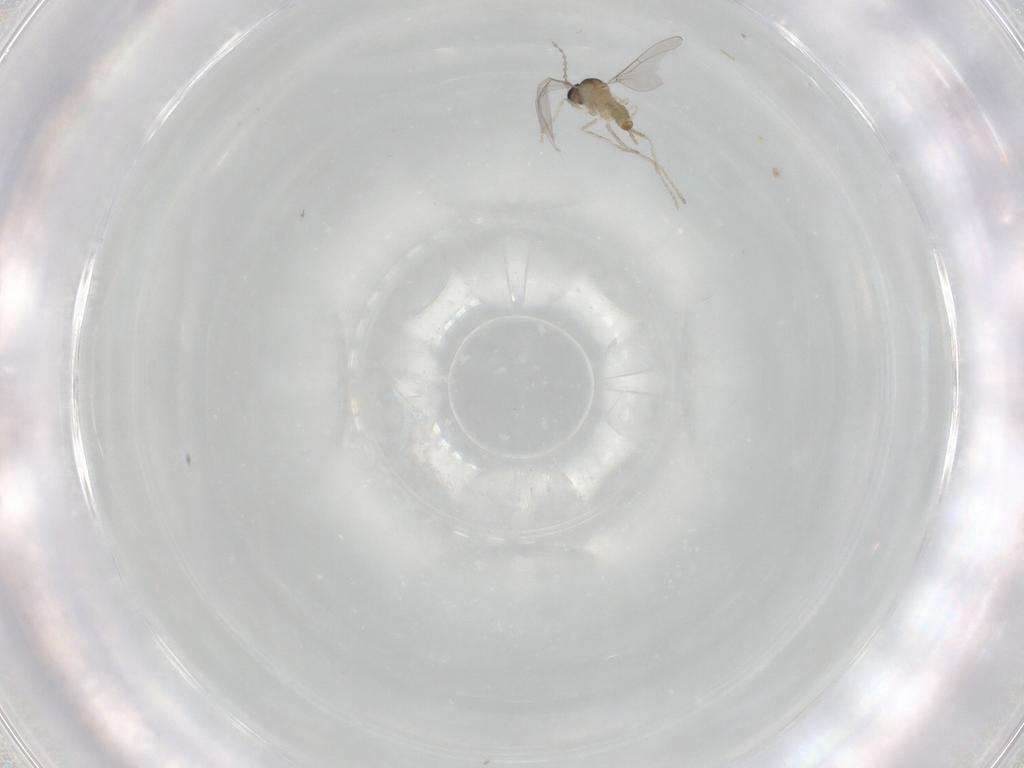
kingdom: Animalia
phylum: Arthropoda
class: Insecta
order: Diptera
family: Cecidomyiidae
